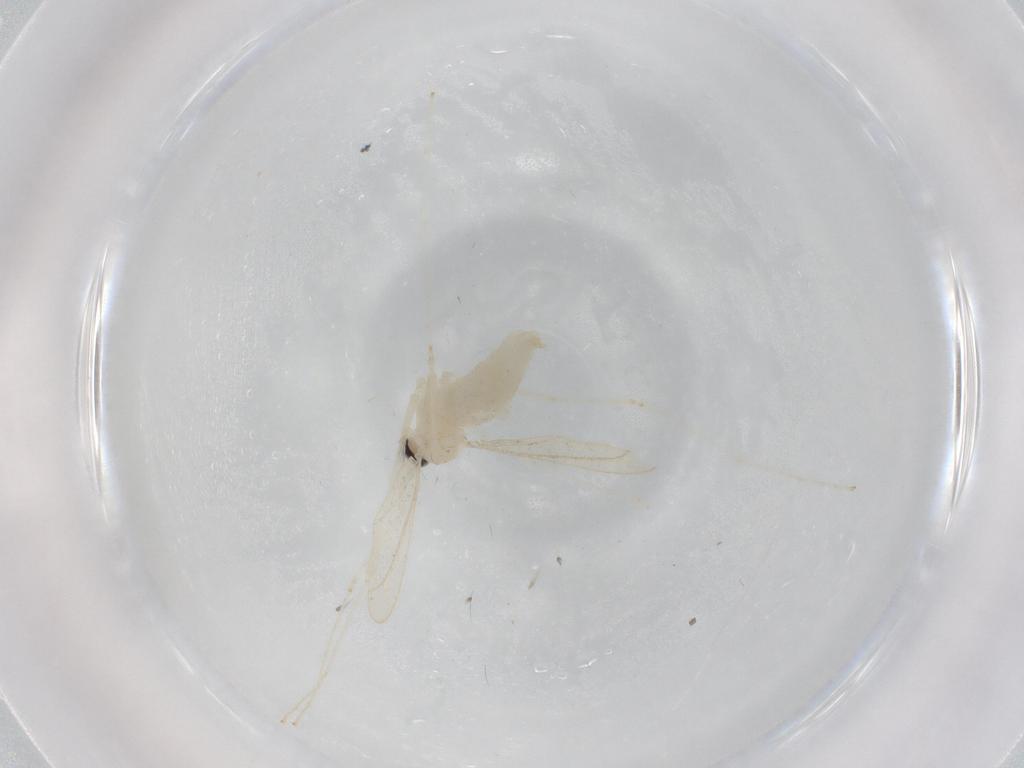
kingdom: Animalia
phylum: Arthropoda
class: Insecta
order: Diptera
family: Cecidomyiidae
